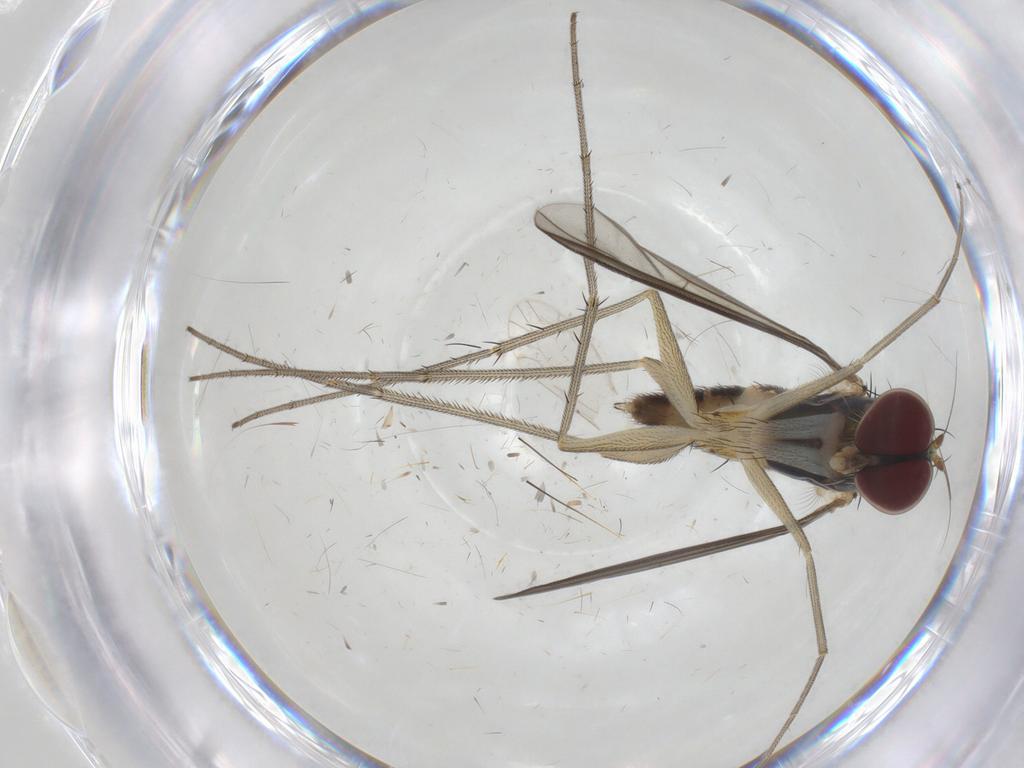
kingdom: Animalia
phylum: Arthropoda
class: Insecta
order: Diptera
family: Dolichopodidae
